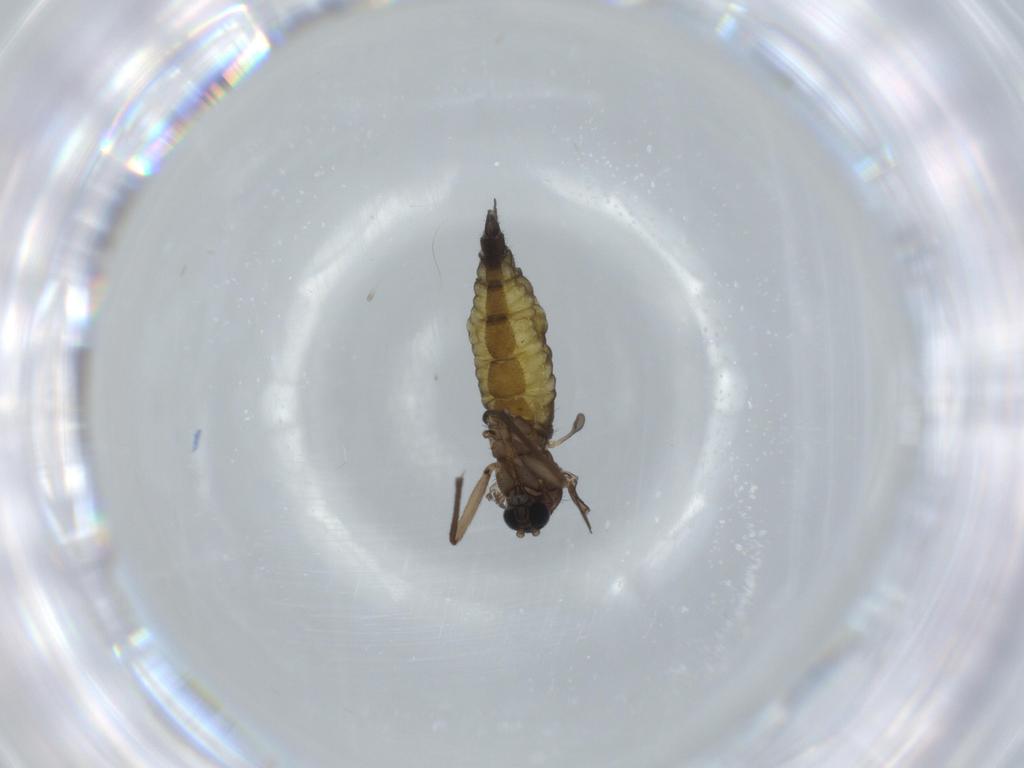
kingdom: Animalia
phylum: Arthropoda
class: Insecta
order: Diptera
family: Sciaridae
